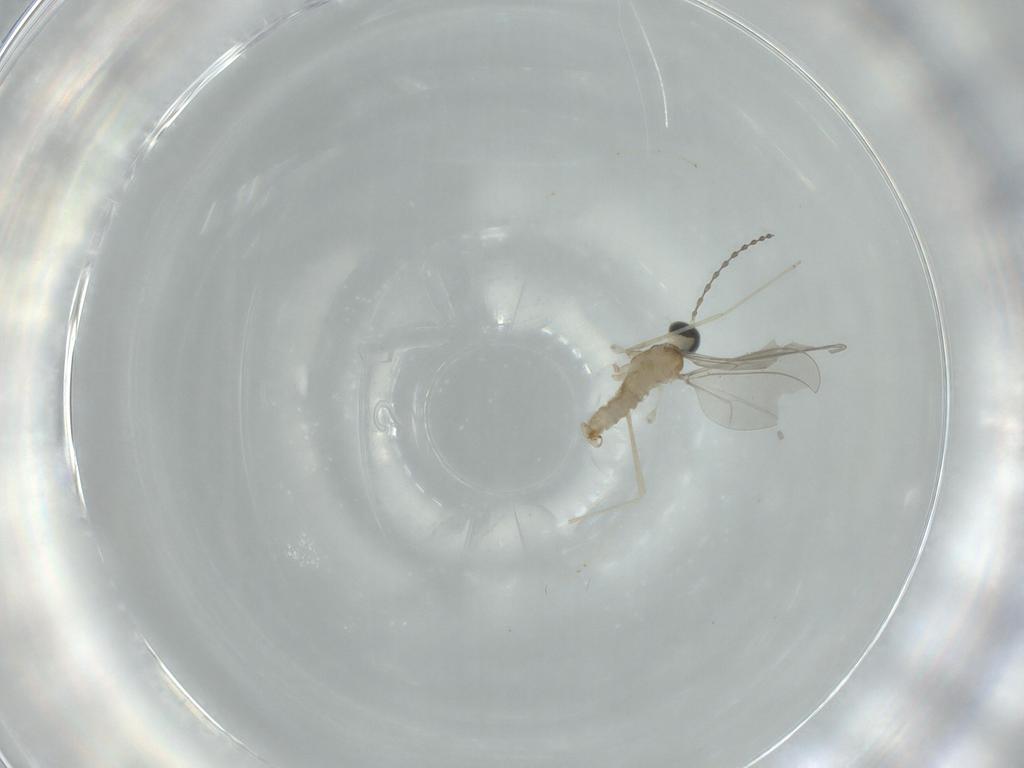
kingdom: Animalia
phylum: Arthropoda
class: Insecta
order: Diptera
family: Cecidomyiidae
